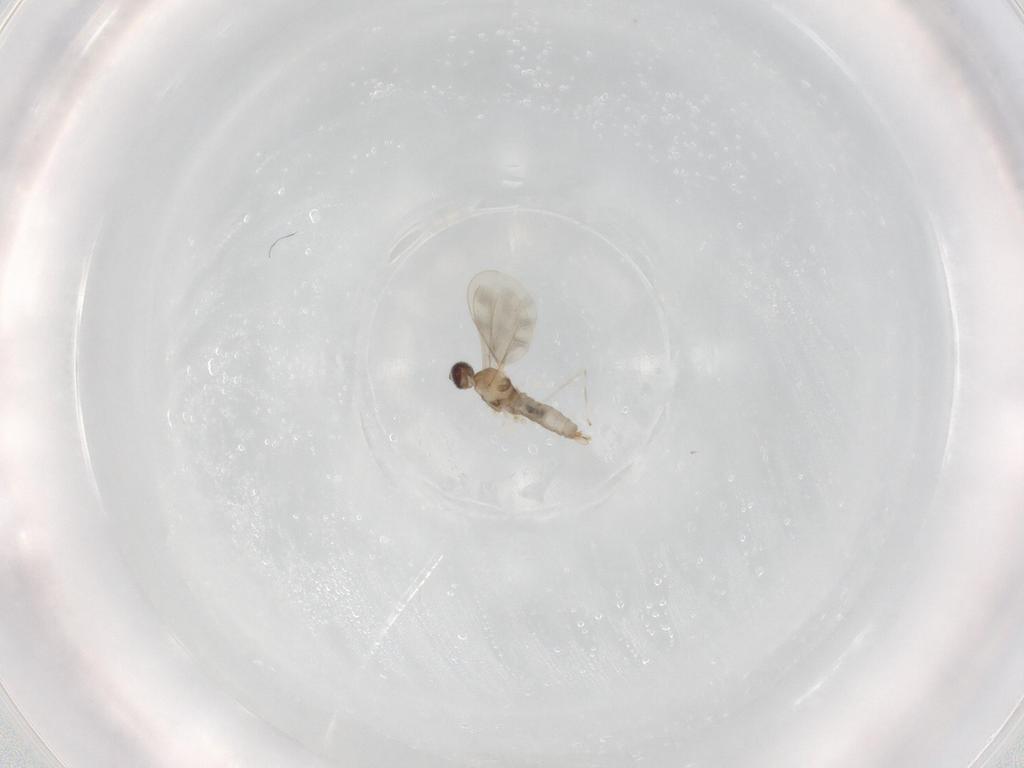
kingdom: Animalia
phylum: Arthropoda
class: Insecta
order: Diptera
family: Cecidomyiidae
